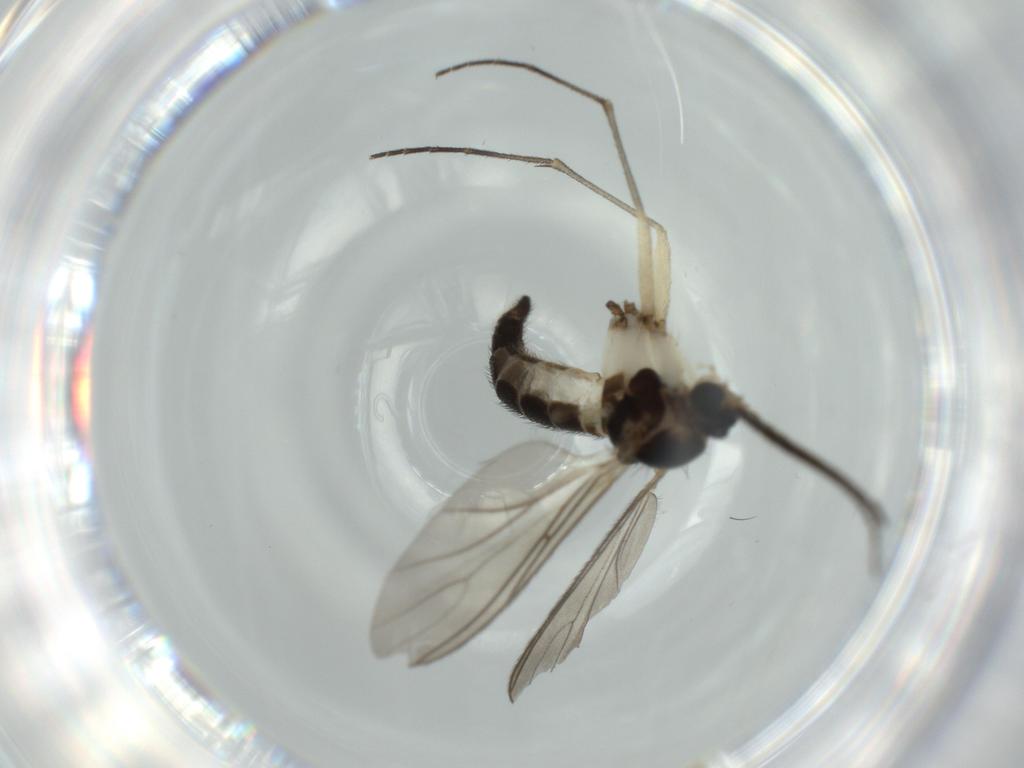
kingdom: Animalia
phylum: Arthropoda
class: Insecta
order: Diptera
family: Sciaridae
